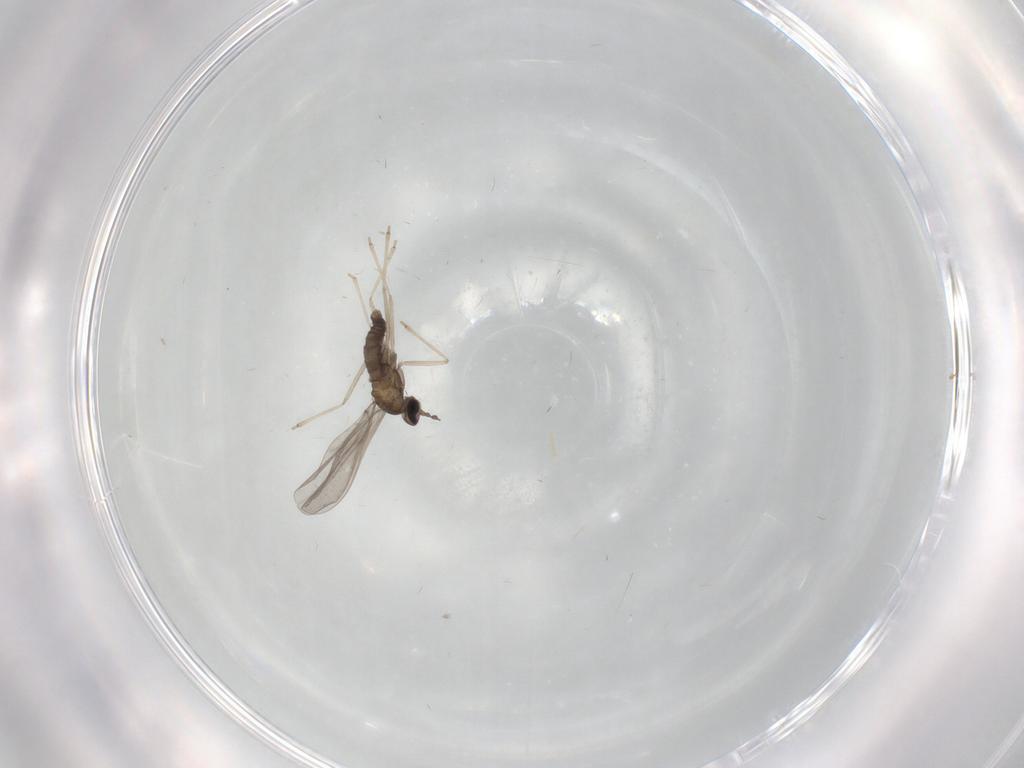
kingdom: Animalia
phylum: Arthropoda
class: Insecta
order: Diptera
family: Cecidomyiidae
